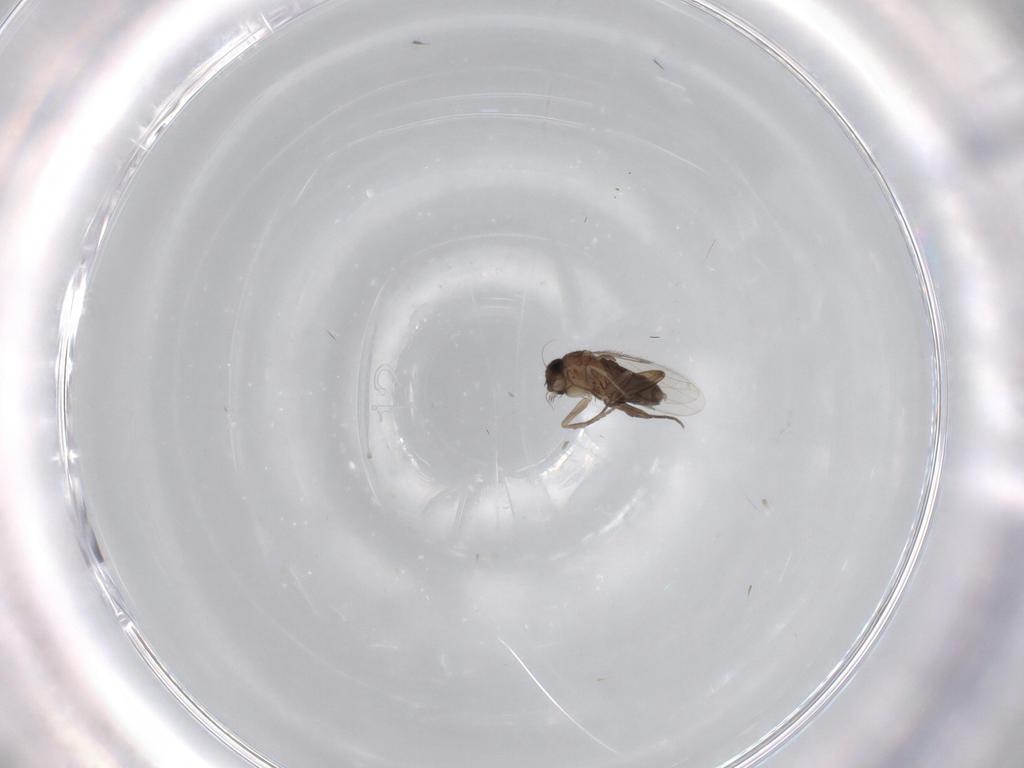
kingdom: Animalia
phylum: Arthropoda
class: Insecta
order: Diptera
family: Phoridae
